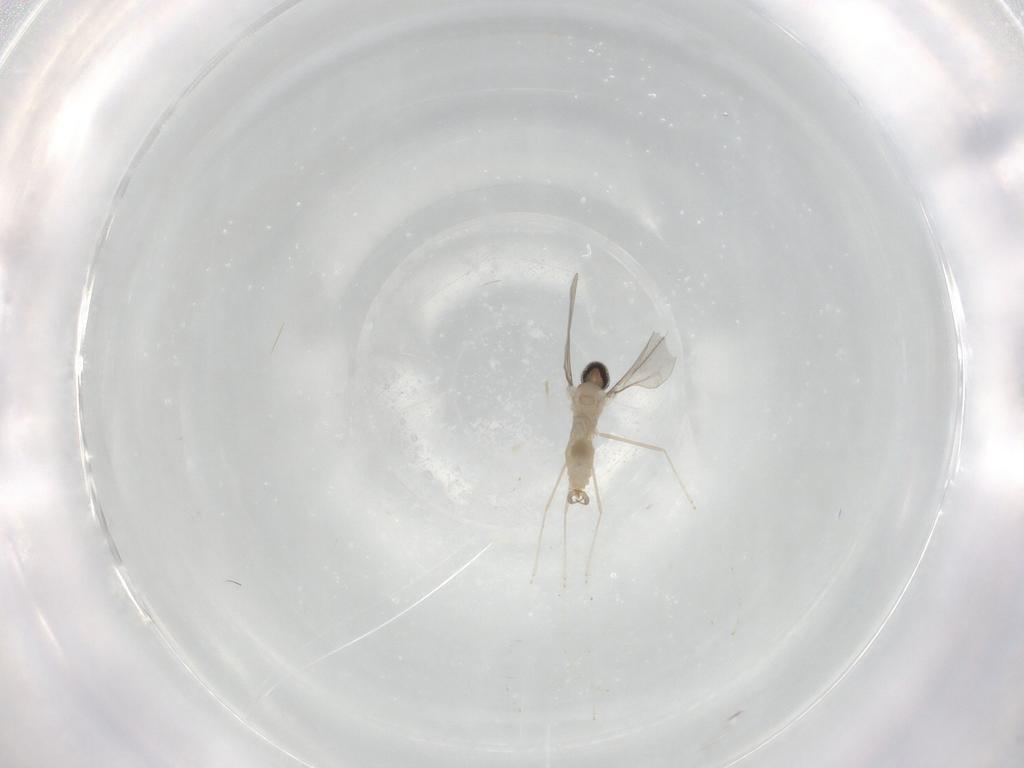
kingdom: Animalia
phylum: Arthropoda
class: Insecta
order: Diptera
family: Cecidomyiidae
